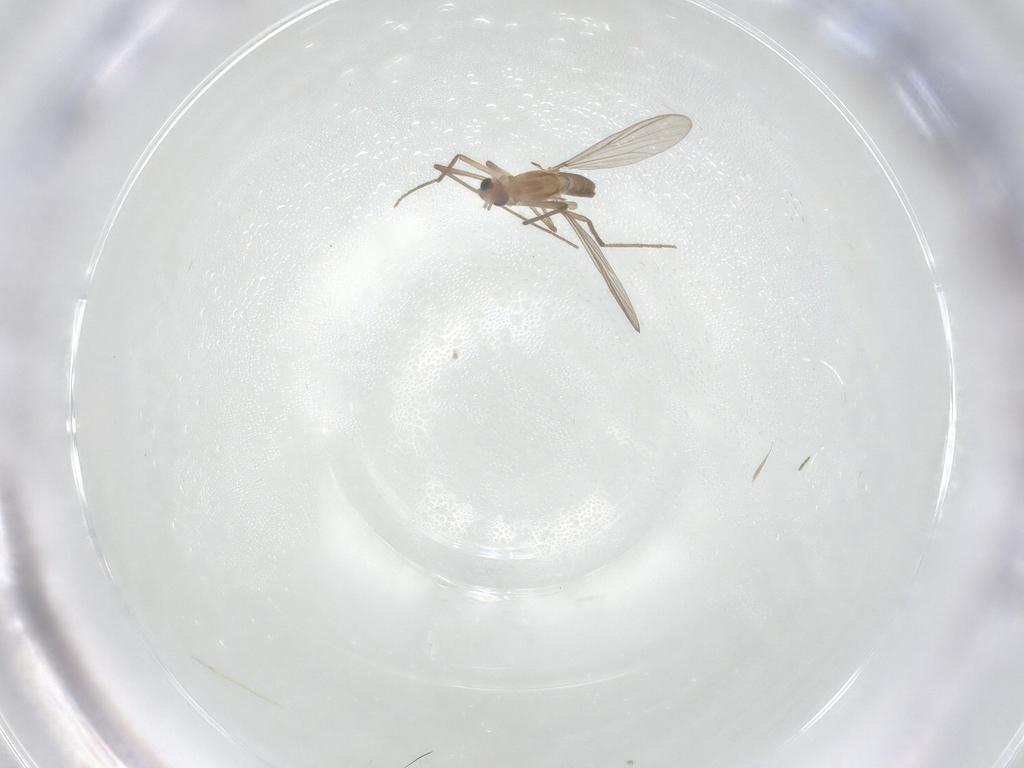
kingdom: Animalia
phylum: Arthropoda
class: Insecta
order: Diptera
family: Chironomidae
